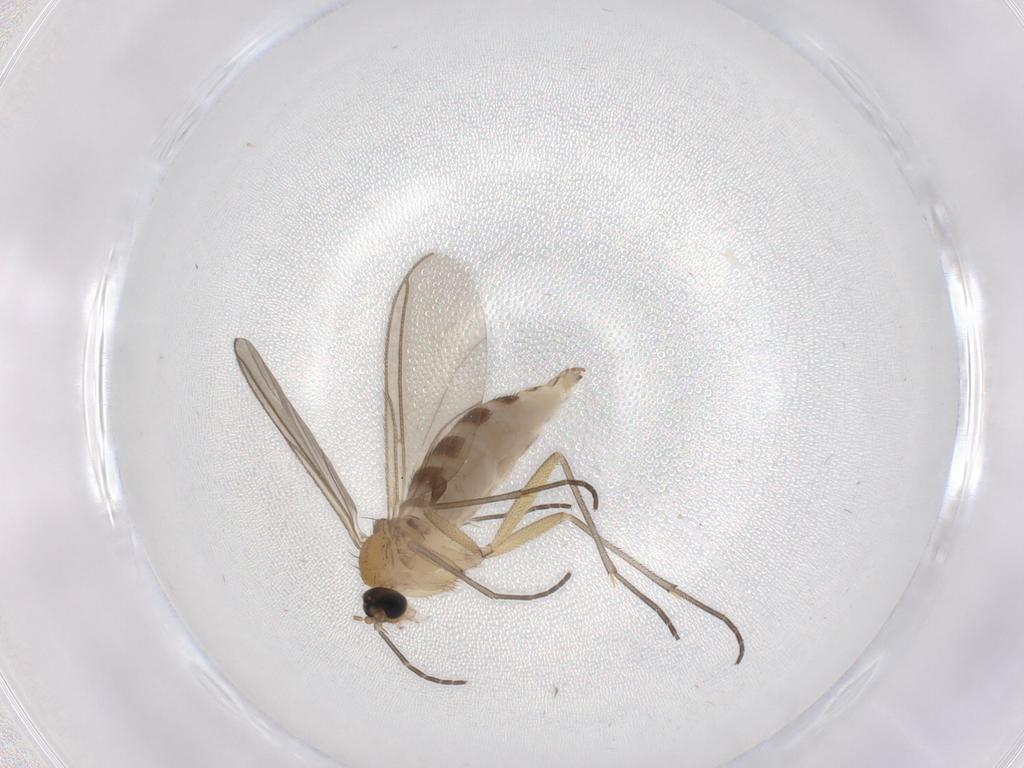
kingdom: Animalia
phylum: Arthropoda
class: Insecta
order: Diptera
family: Sciaridae
